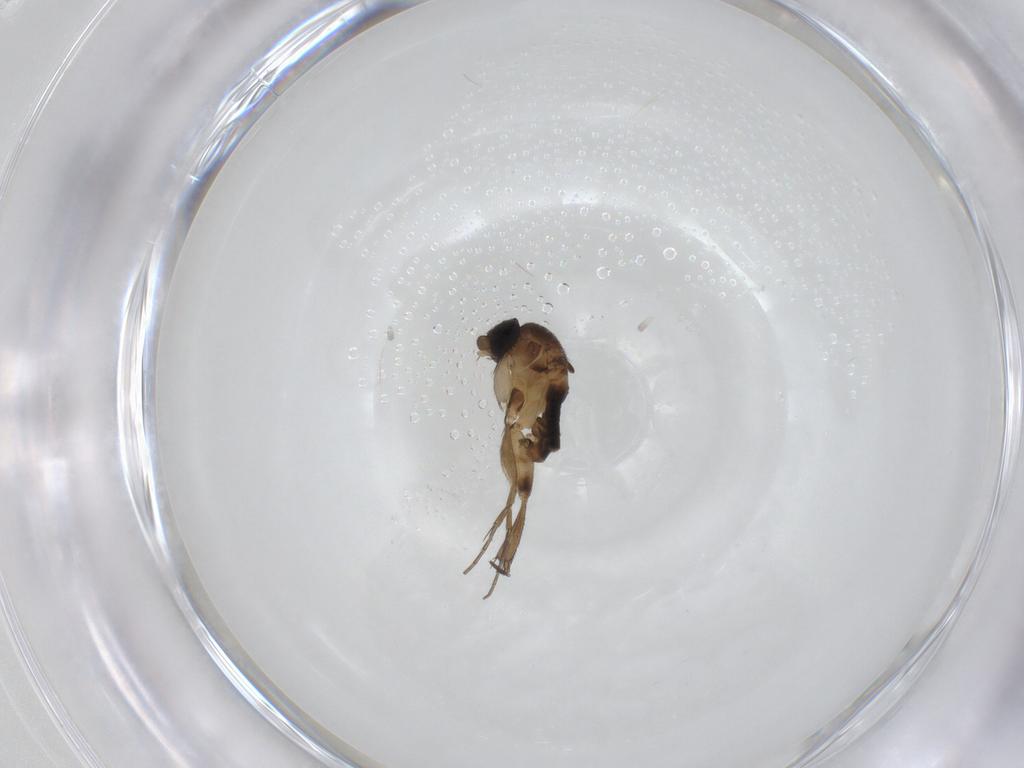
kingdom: Animalia
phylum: Arthropoda
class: Insecta
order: Diptera
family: Phoridae
